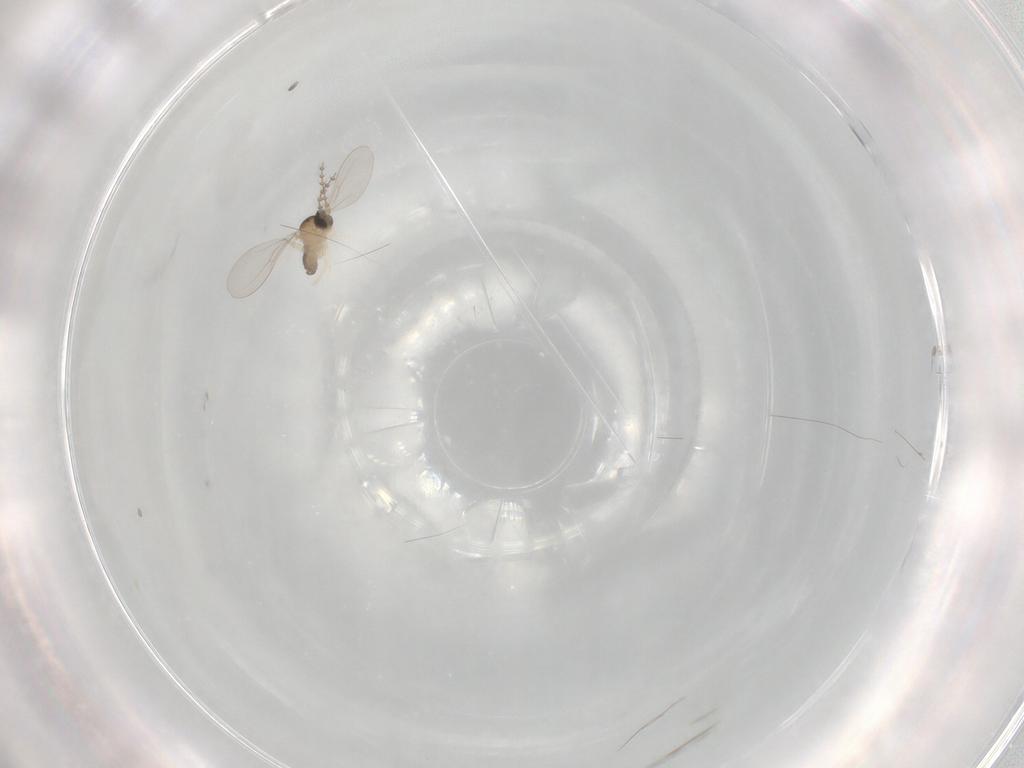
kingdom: Animalia
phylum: Arthropoda
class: Insecta
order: Diptera
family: Cecidomyiidae
